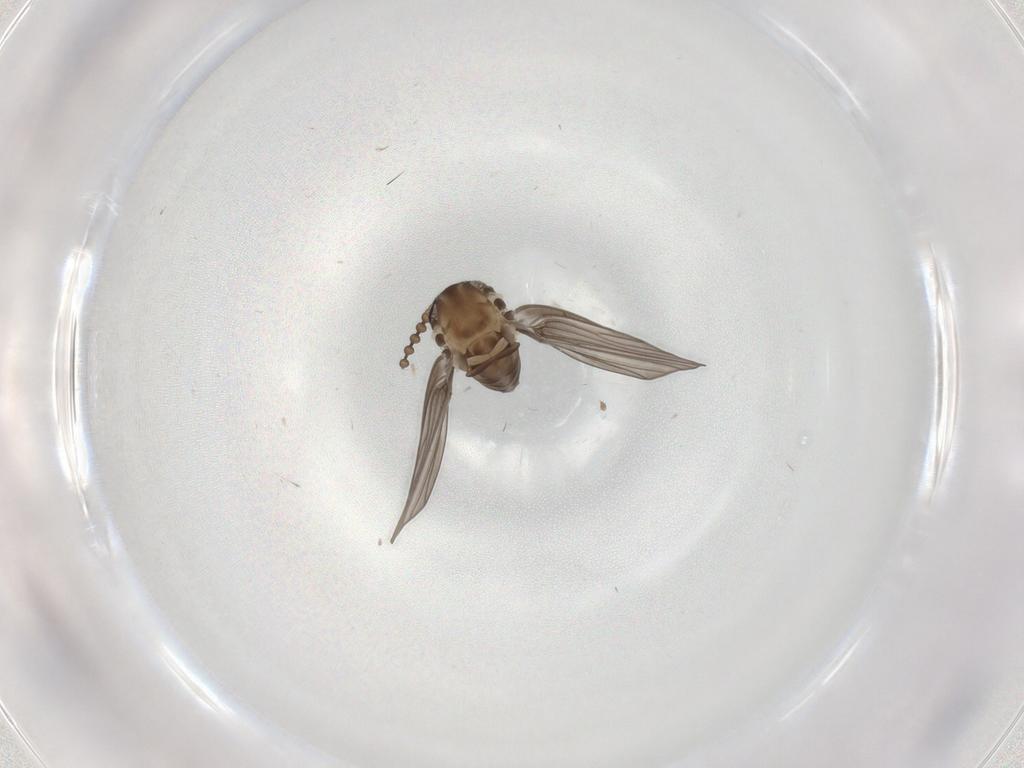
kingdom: Animalia
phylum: Arthropoda
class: Insecta
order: Diptera
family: Psychodidae
